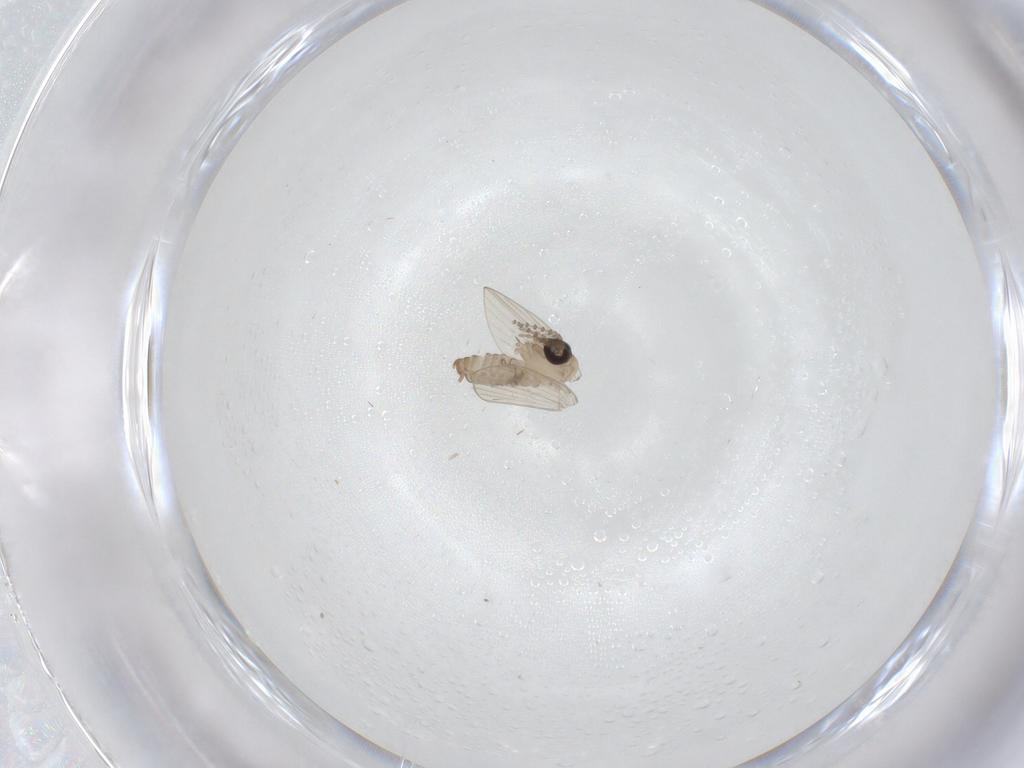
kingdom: Animalia
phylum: Arthropoda
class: Insecta
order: Diptera
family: Psychodidae
